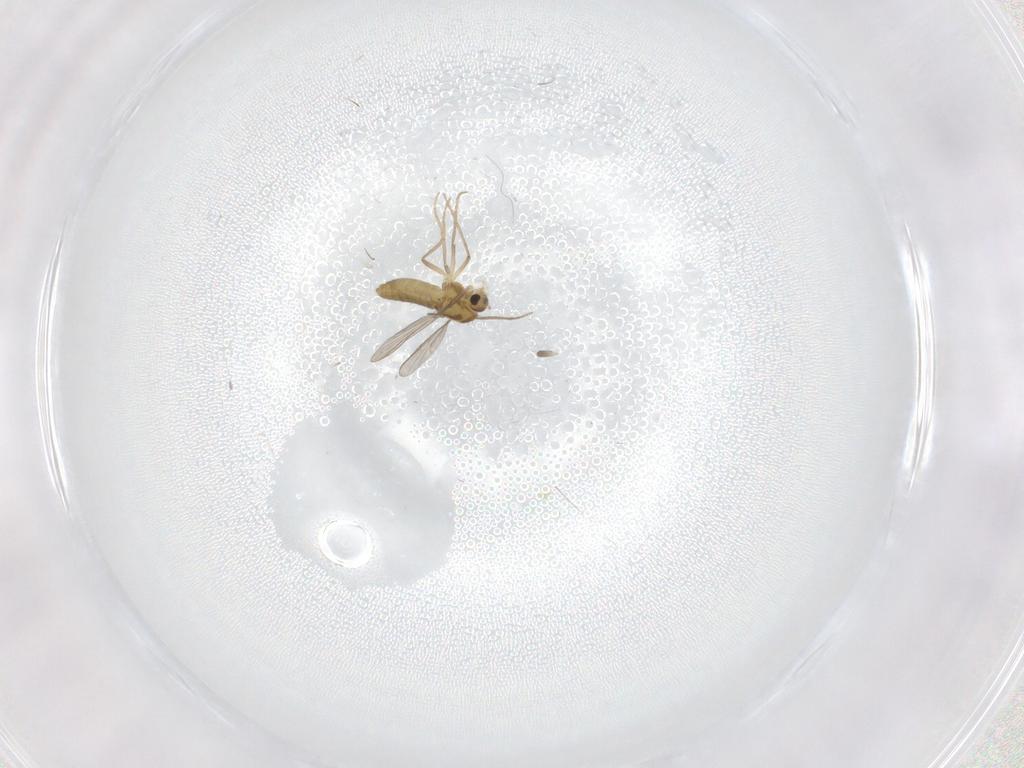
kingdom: Animalia
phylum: Arthropoda
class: Insecta
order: Diptera
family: Chironomidae
